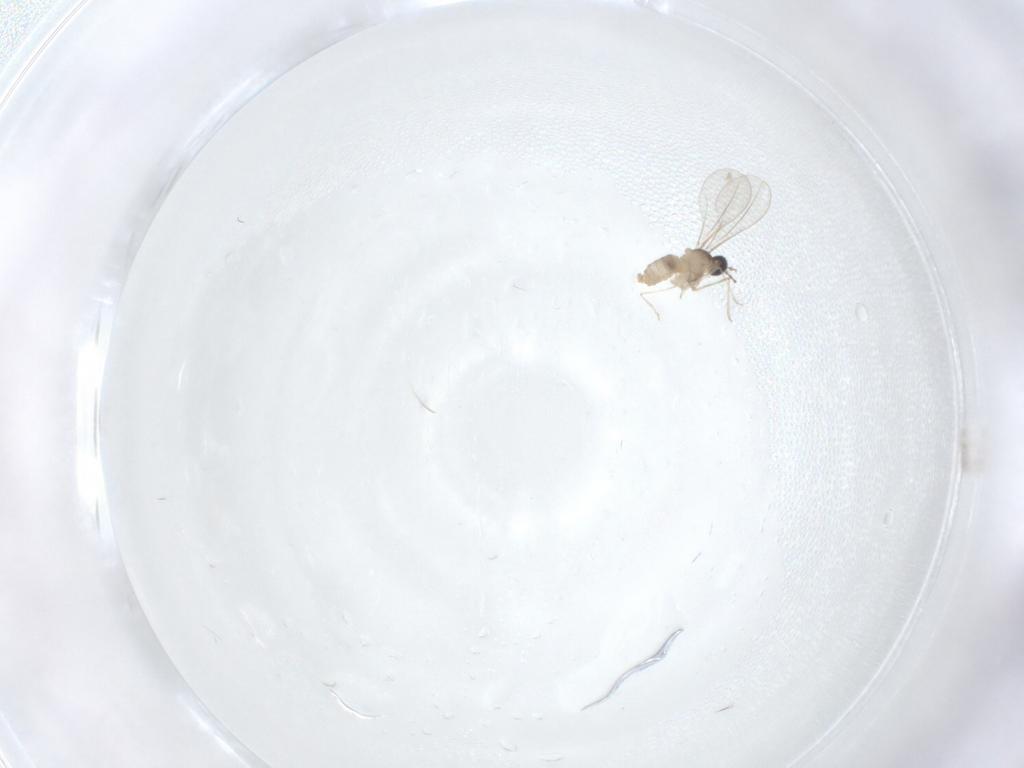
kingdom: Animalia
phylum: Arthropoda
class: Insecta
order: Diptera
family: Cecidomyiidae
